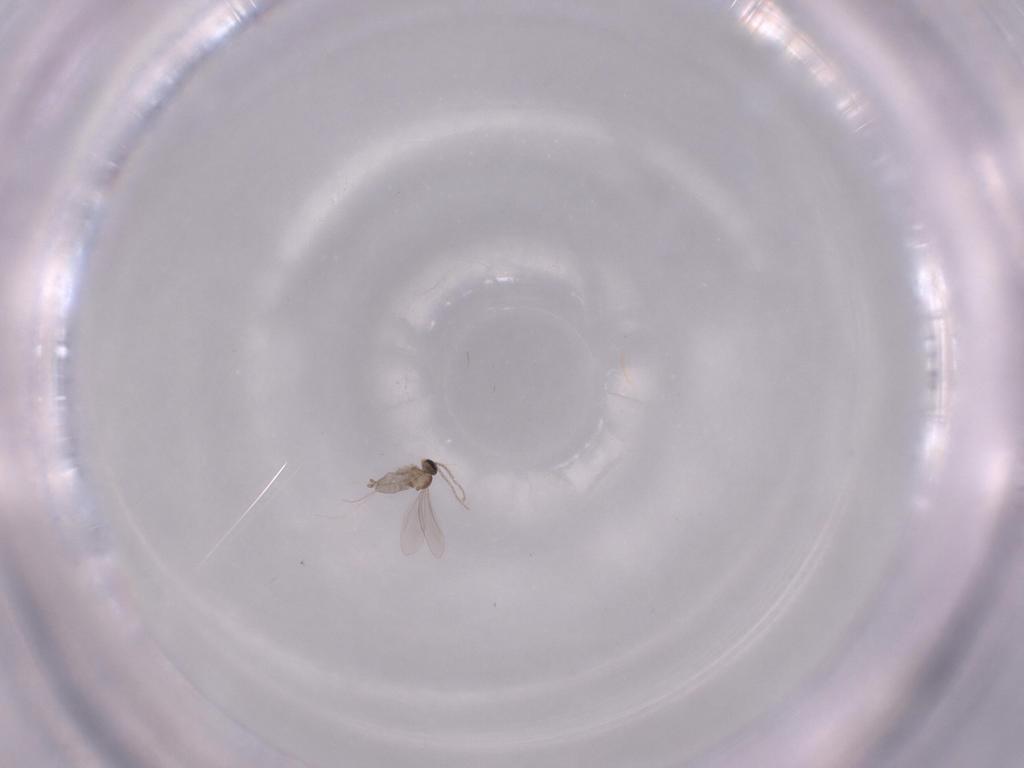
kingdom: Animalia
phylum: Arthropoda
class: Insecta
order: Diptera
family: Cecidomyiidae
